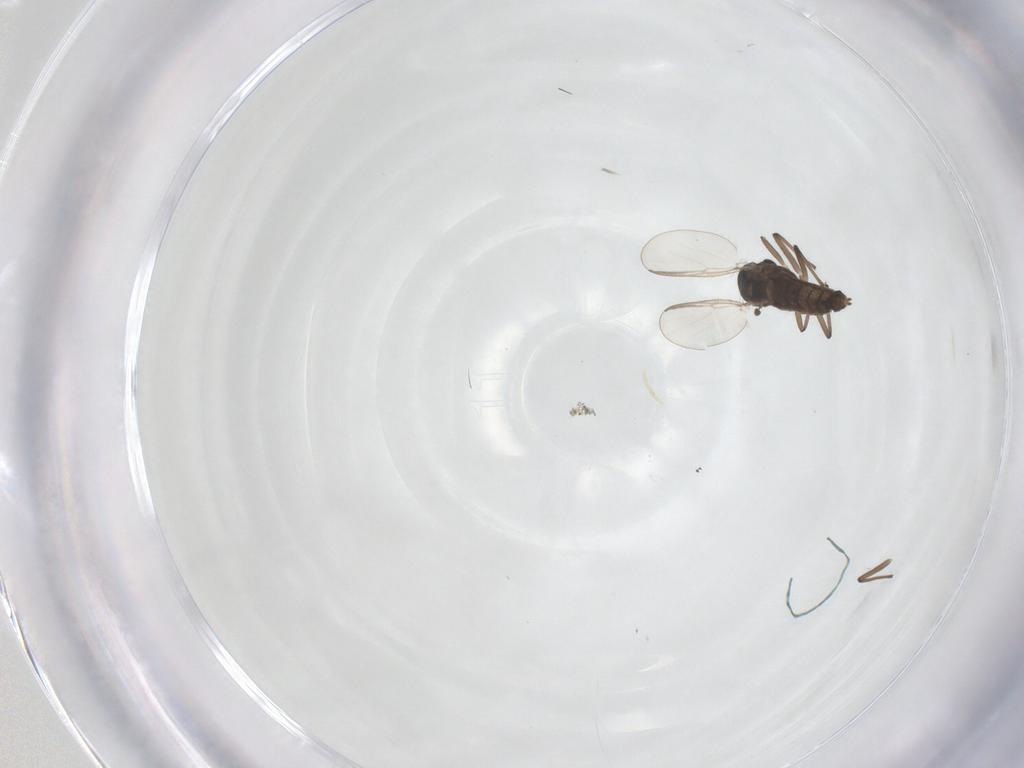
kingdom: Animalia
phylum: Arthropoda
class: Insecta
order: Diptera
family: Chironomidae
